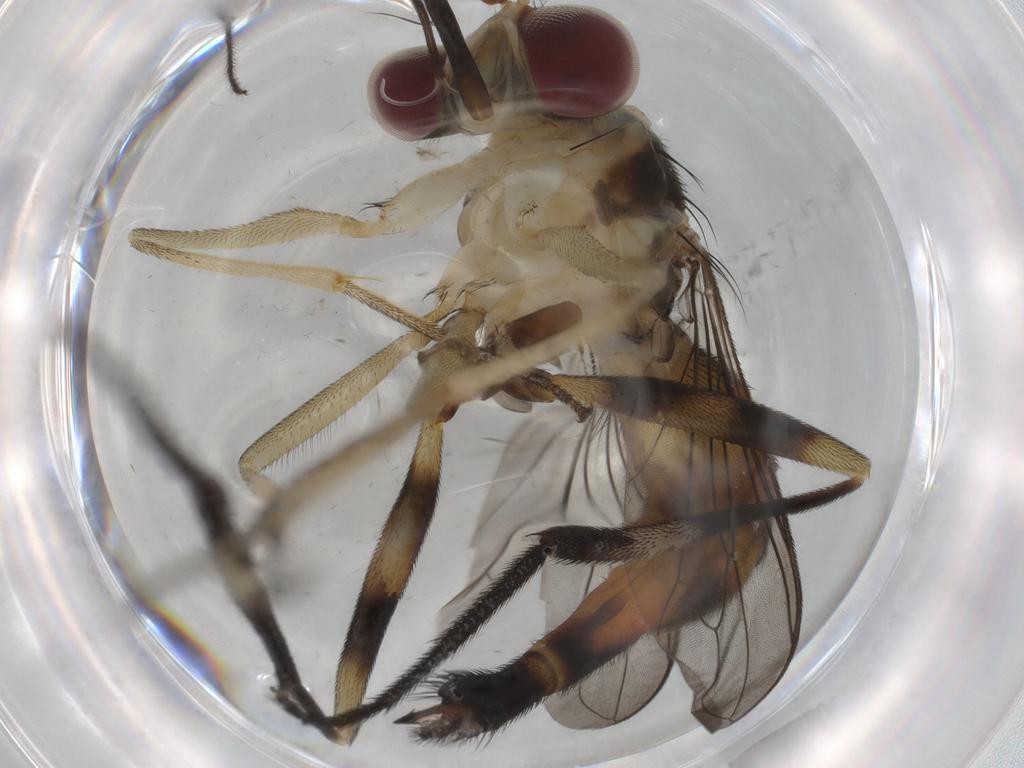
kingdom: Animalia
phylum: Arthropoda
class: Insecta
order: Diptera
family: Sciaridae
